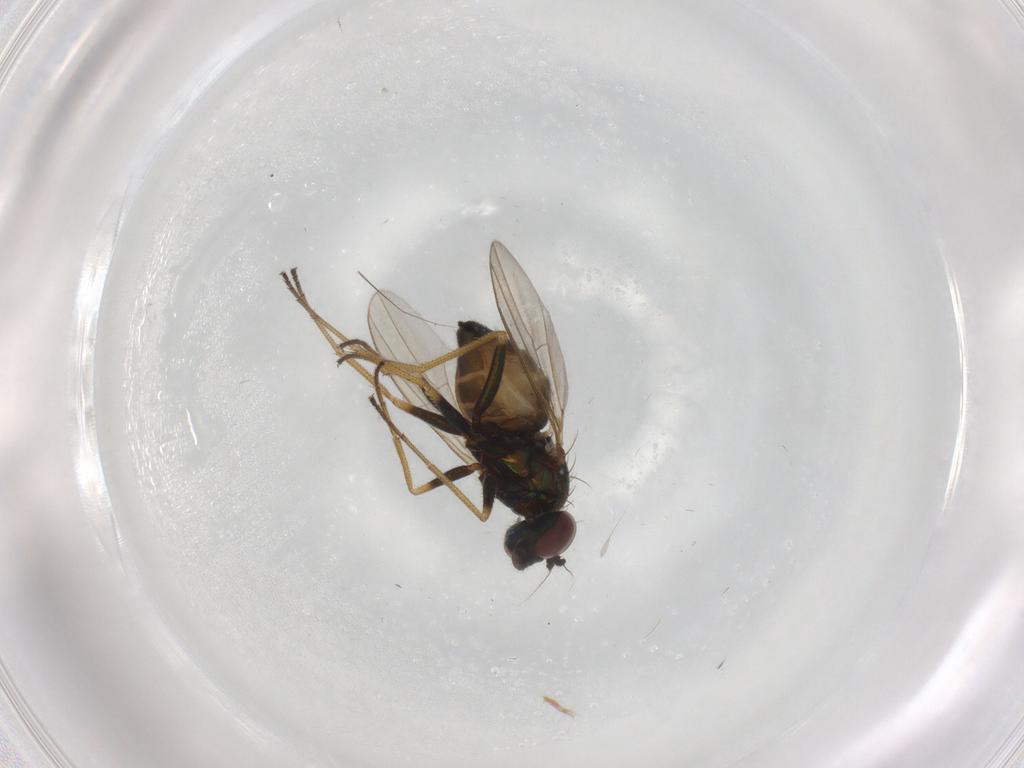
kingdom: Animalia
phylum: Arthropoda
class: Insecta
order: Diptera
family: Dolichopodidae
